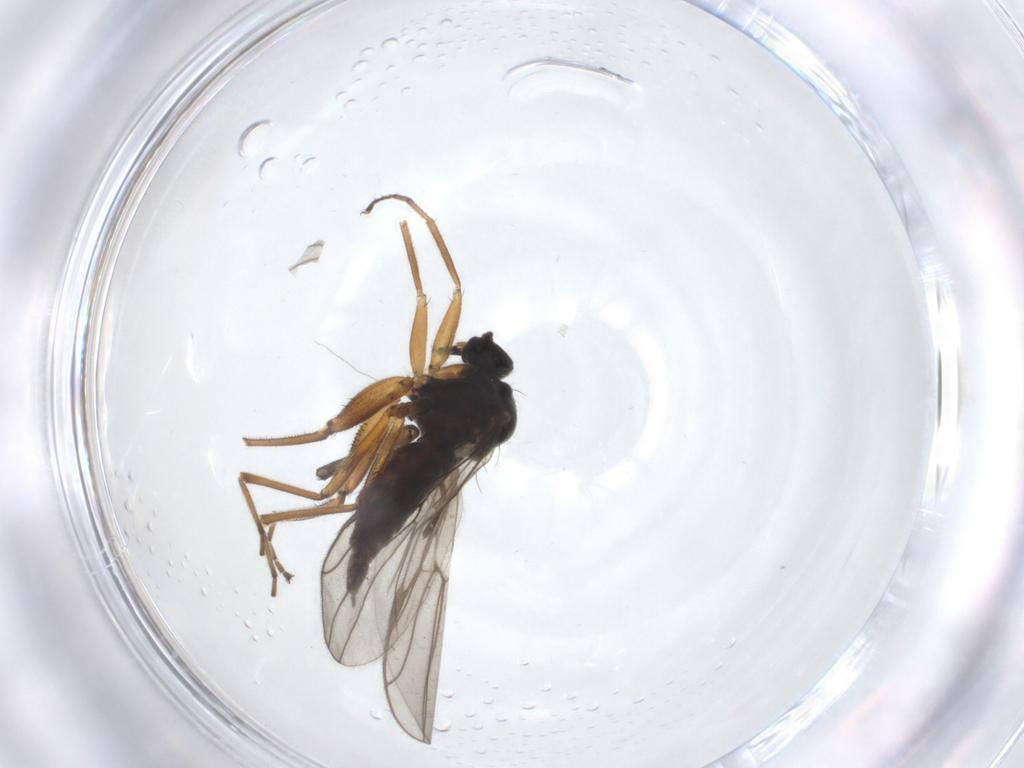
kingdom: Animalia
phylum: Arthropoda
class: Insecta
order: Diptera
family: Hybotidae
